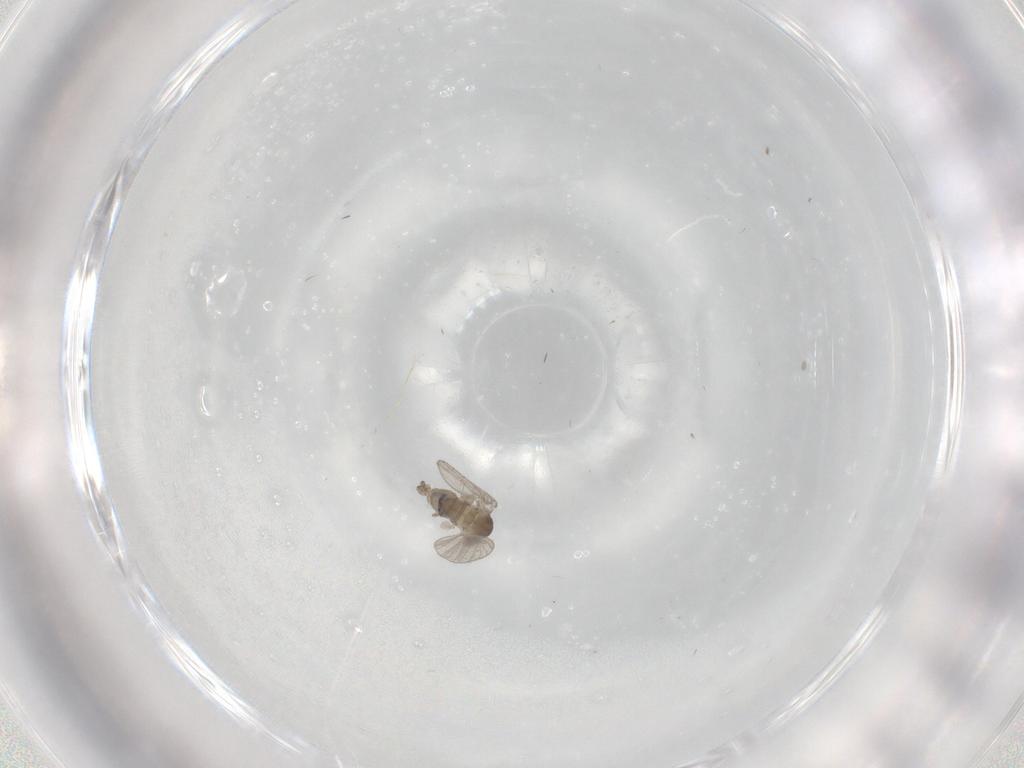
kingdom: Animalia
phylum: Arthropoda
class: Insecta
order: Diptera
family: Psychodidae
